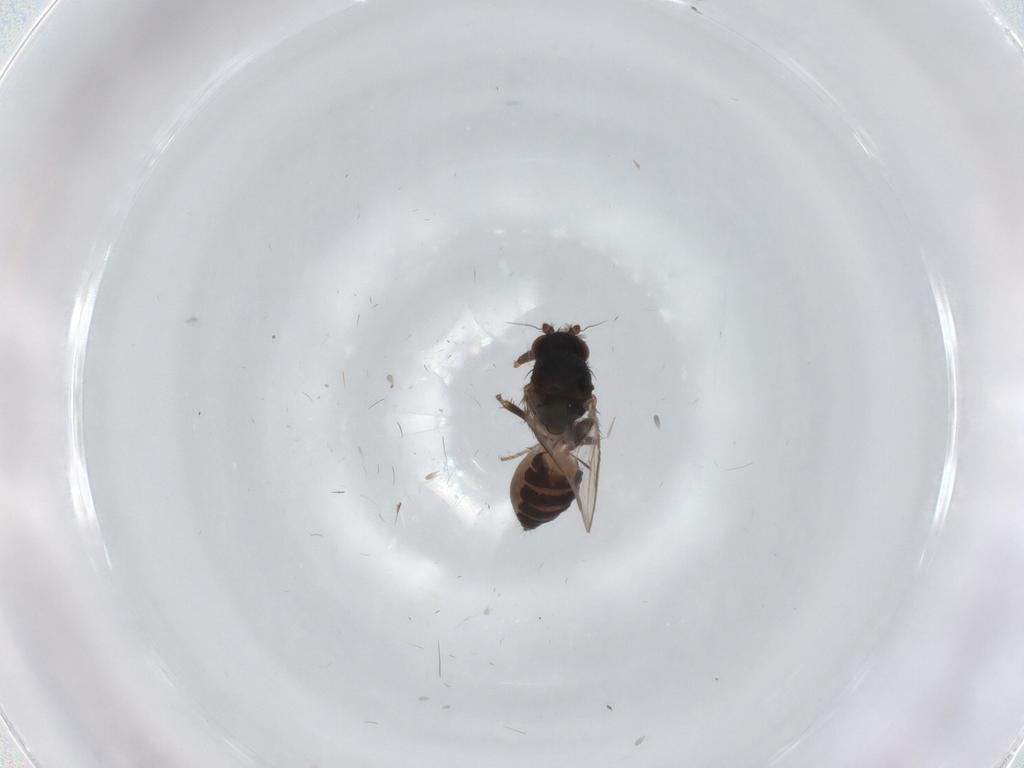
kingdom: Animalia
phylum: Arthropoda
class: Insecta
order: Diptera
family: Sphaeroceridae
